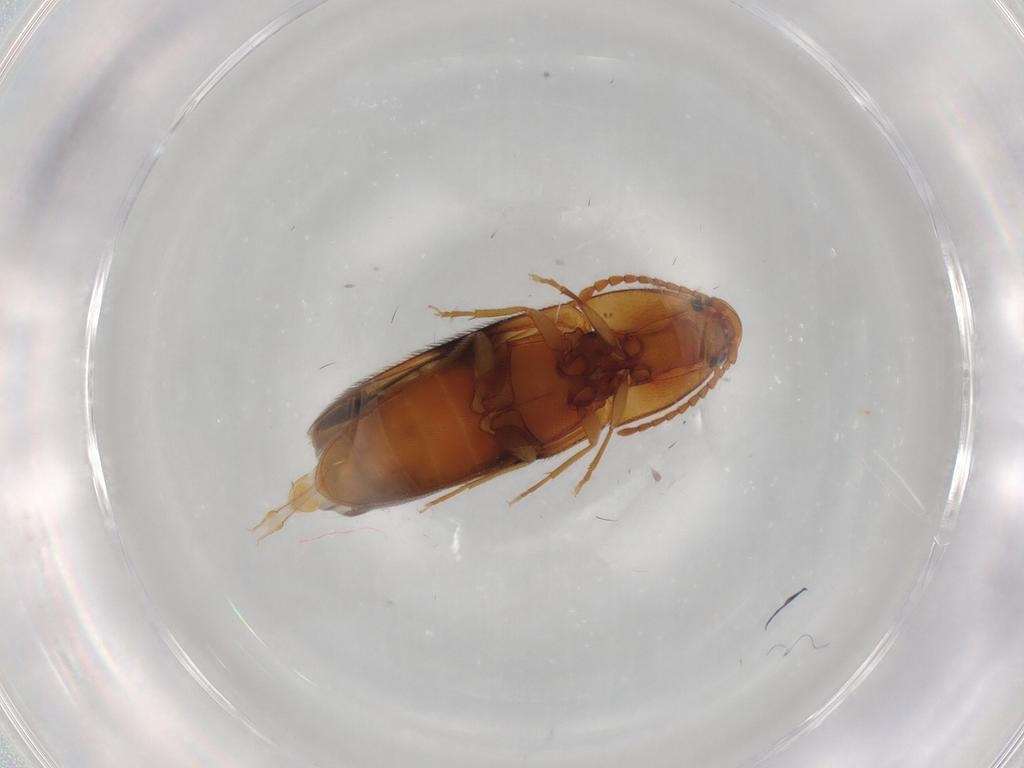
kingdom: Animalia
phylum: Arthropoda
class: Insecta
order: Coleoptera
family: Elateridae
